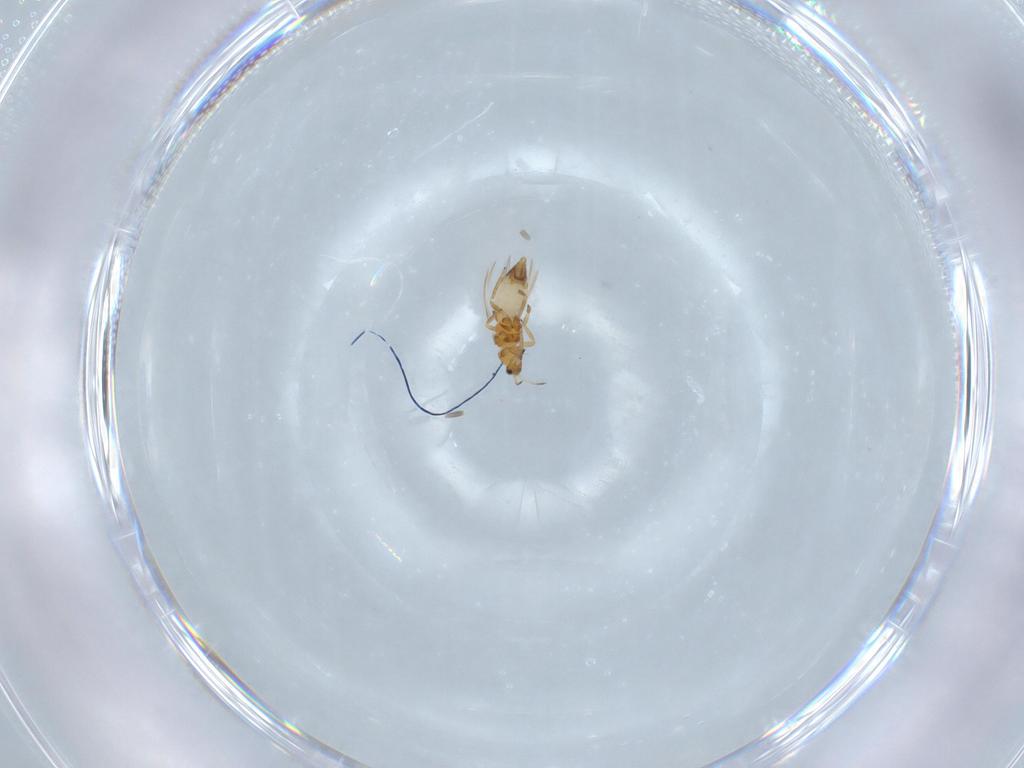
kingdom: Animalia
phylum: Arthropoda
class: Insecta
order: Thysanoptera
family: Thripidae
